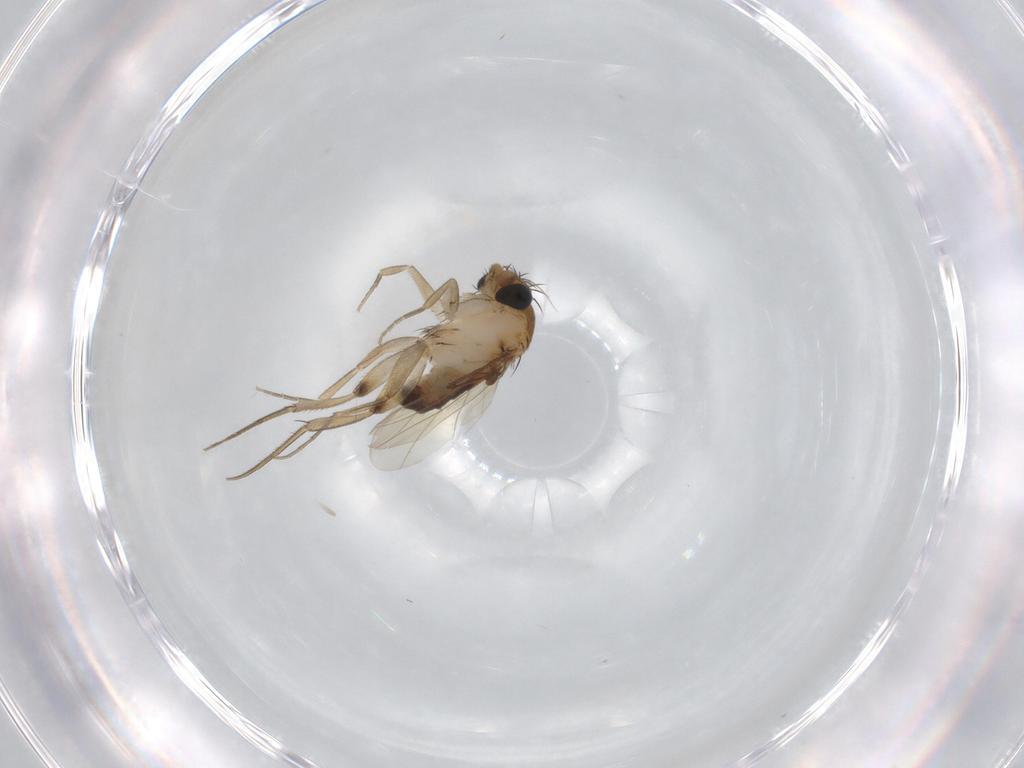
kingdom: Animalia
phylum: Arthropoda
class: Insecta
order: Diptera
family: Phoridae
